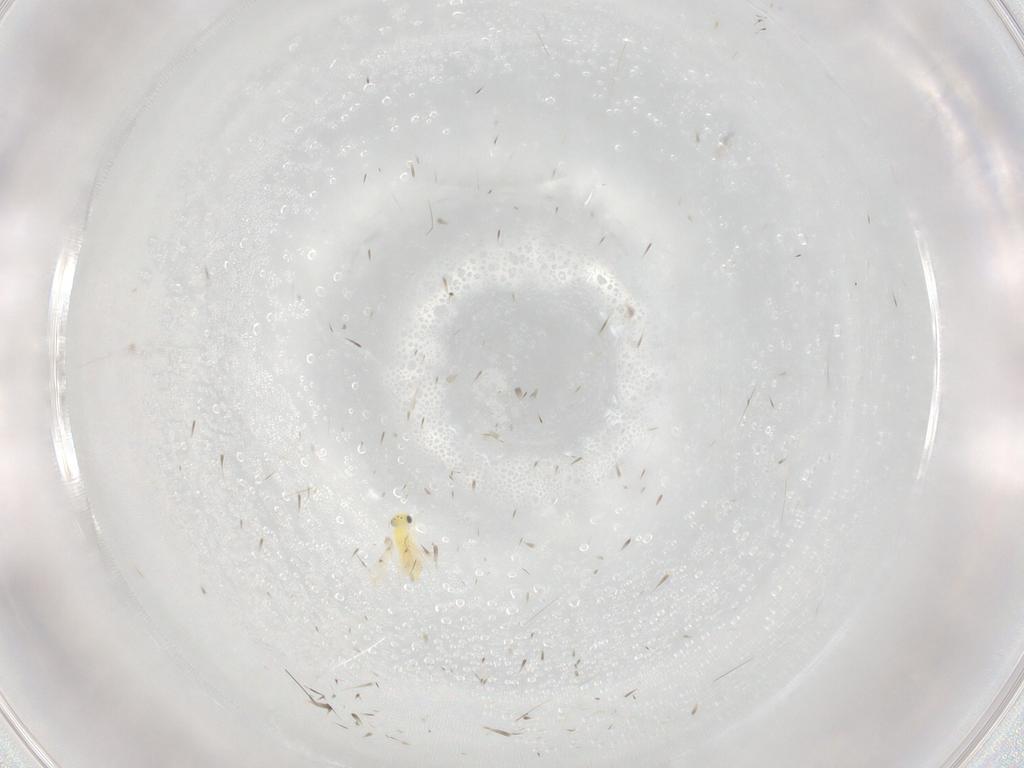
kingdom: Animalia
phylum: Arthropoda
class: Insecta
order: Hymenoptera
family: Trichogrammatidae
